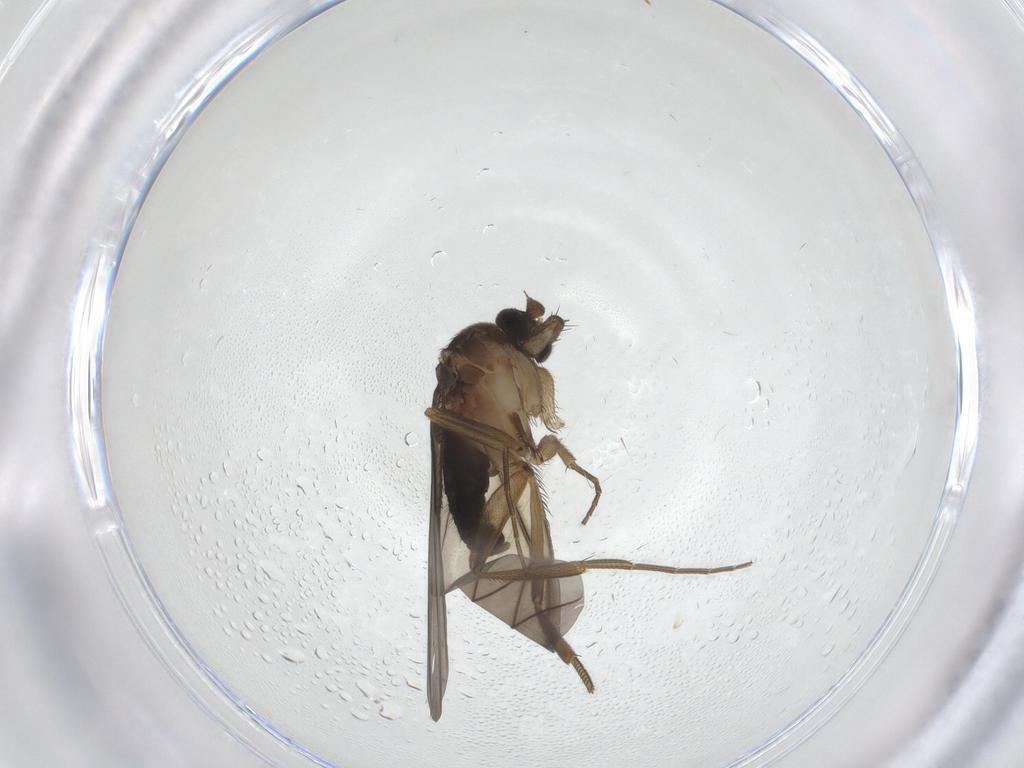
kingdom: Animalia
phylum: Arthropoda
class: Insecta
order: Diptera
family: Phoridae
